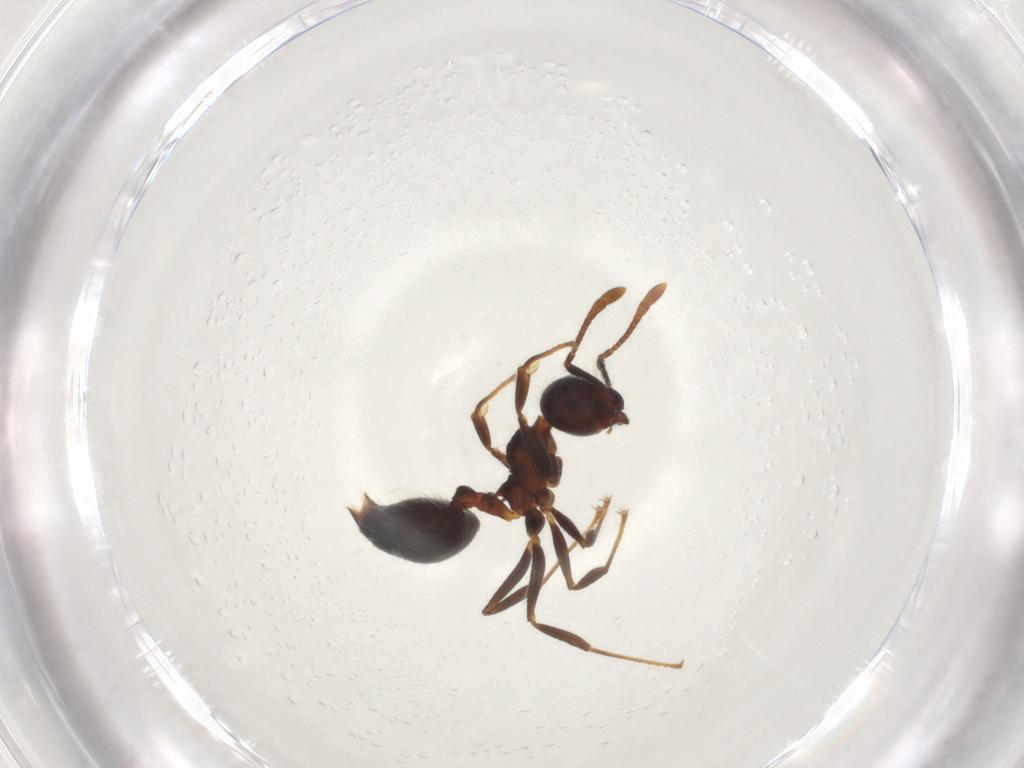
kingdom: Animalia
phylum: Arthropoda
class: Insecta
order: Hymenoptera
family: Formicidae
